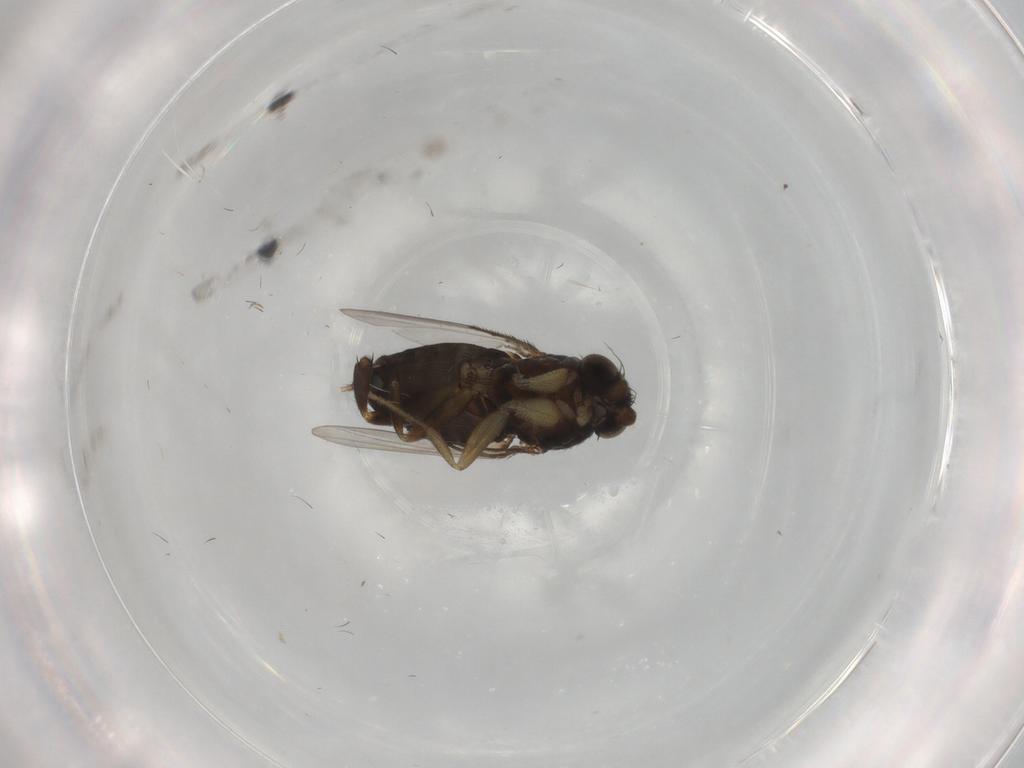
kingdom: Animalia
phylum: Arthropoda
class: Insecta
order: Diptera
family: Phoridae
